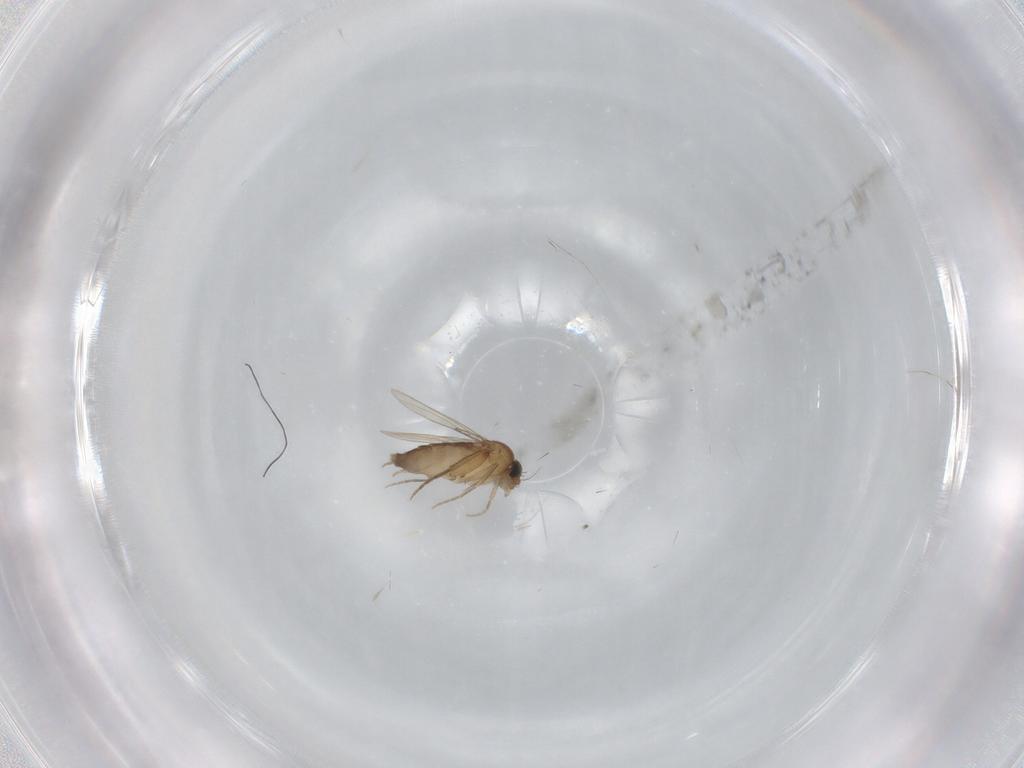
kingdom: Animalia
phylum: Arthropoda
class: Insecta
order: Diptera
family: Phoridae
